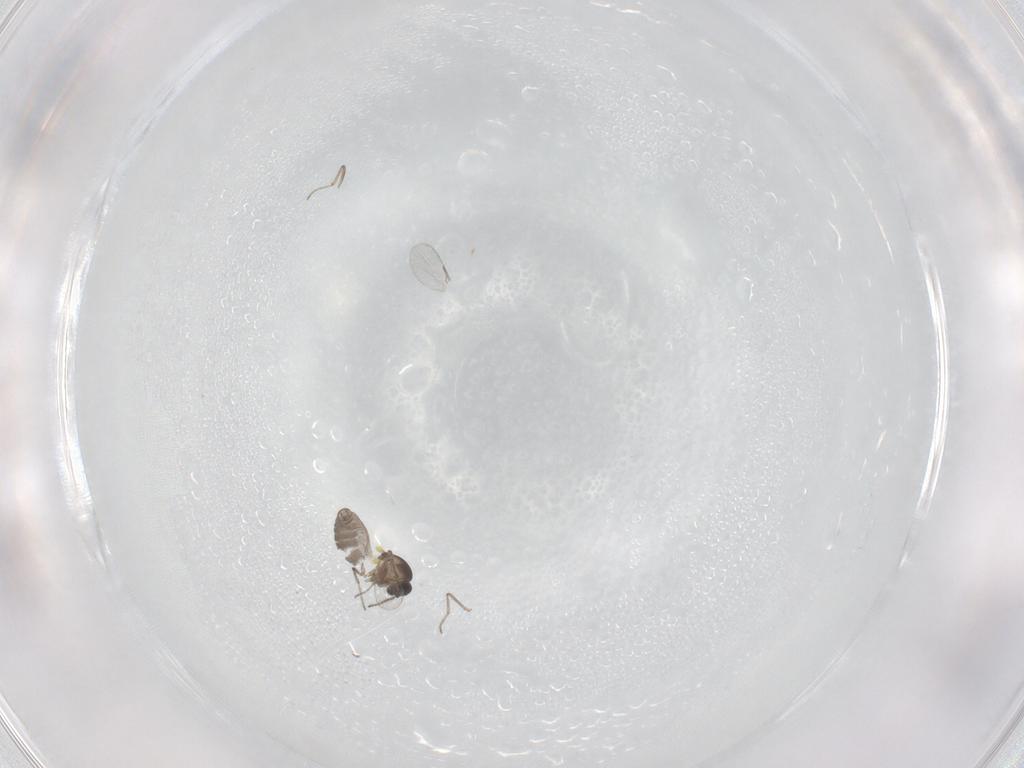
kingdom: Animalia
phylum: Arthropoda
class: Insecta
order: Diptera
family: Ceratopogonidae
